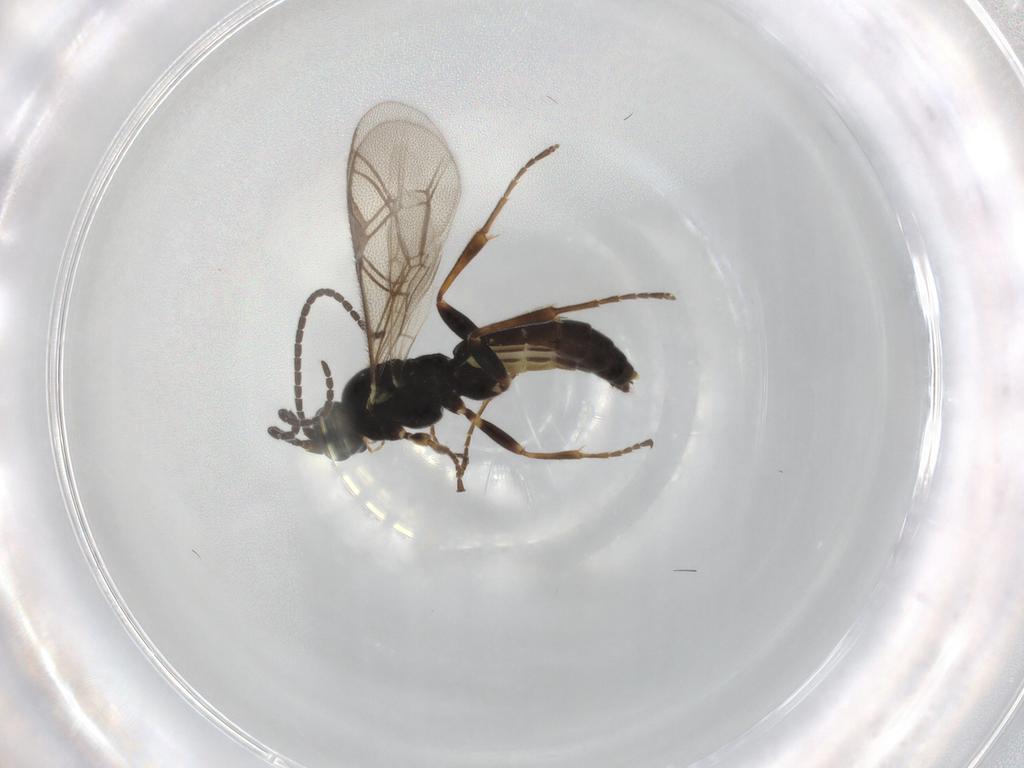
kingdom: Animalia
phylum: Arthropoda
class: Insecta
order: Hymenoptera
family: Ichneumonidae
